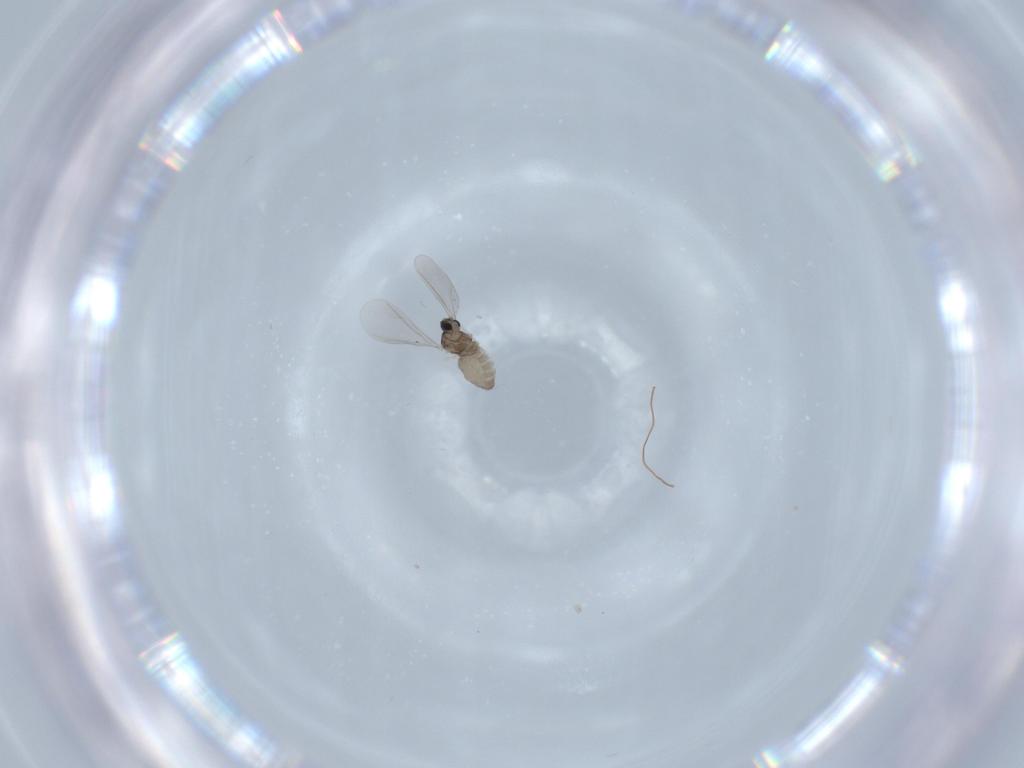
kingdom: Animalia
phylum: Arthropoda
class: Insecta
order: Diptera
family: Cecidomyiidae
